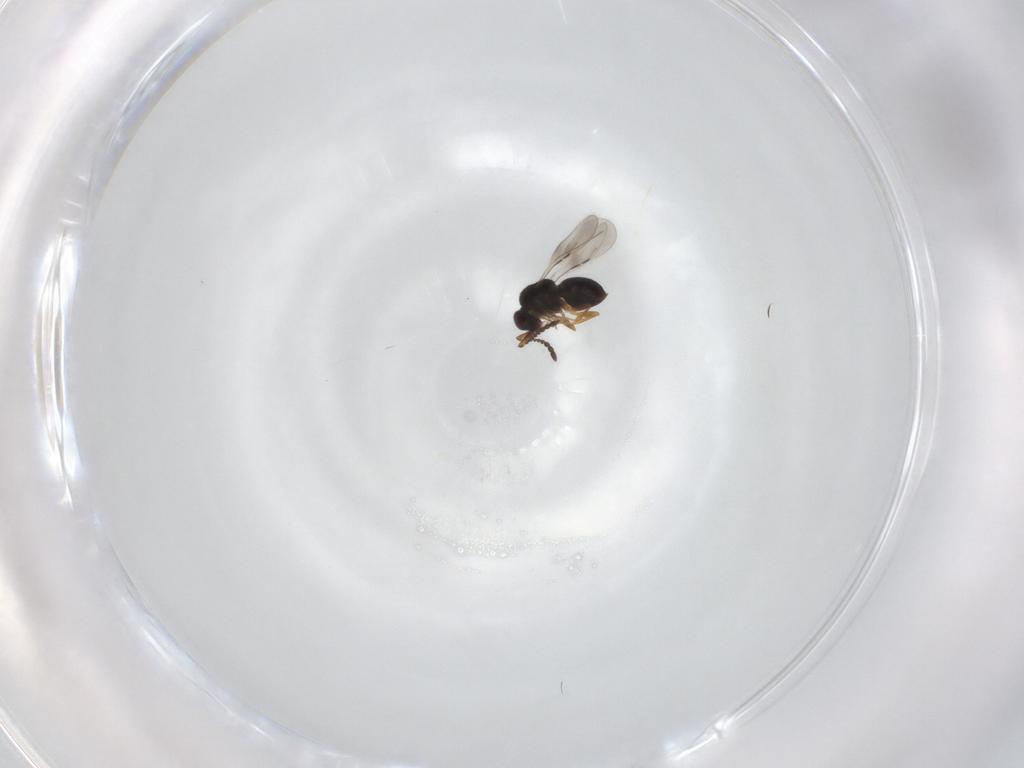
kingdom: Animalia
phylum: Arthropoda
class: Insecta
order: Hymenoptera
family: Ceraphronidae
